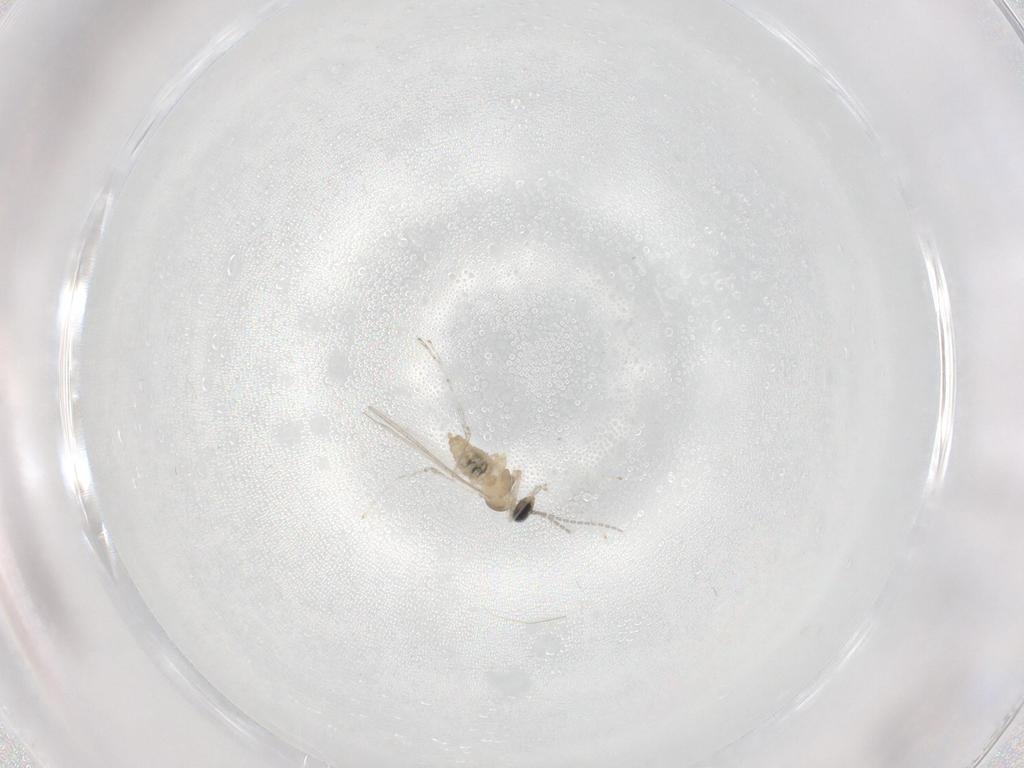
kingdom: Animalia
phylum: Arthropoda
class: Insecta
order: Diptera
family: Cecidomyiidae
